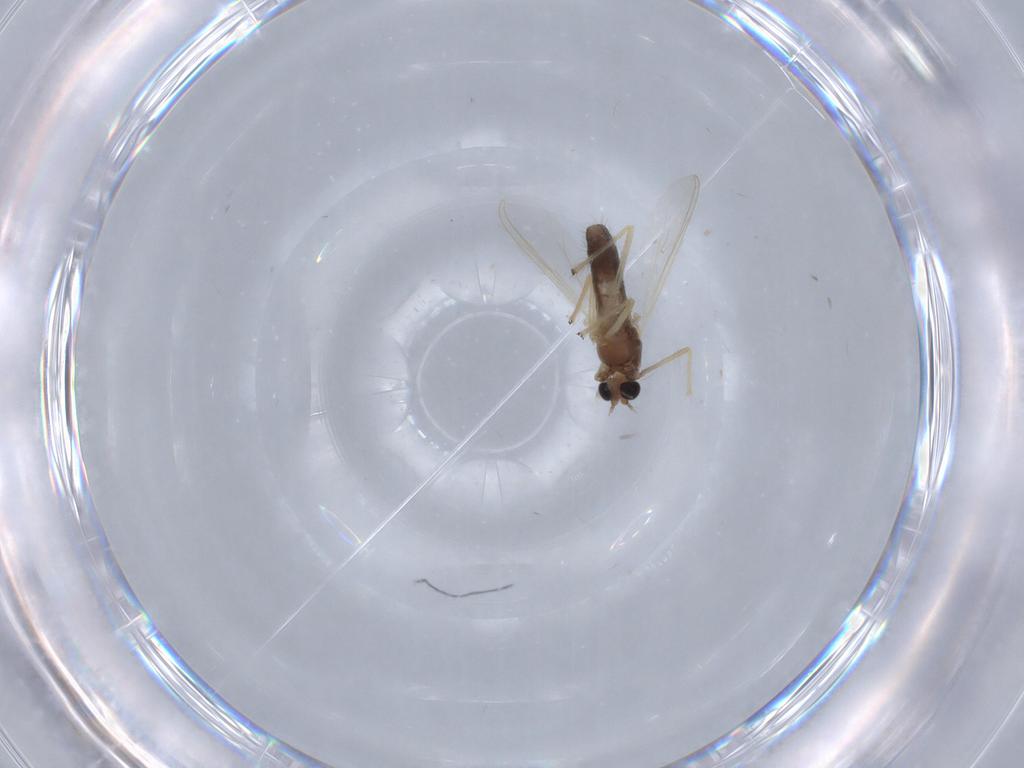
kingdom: Animalia
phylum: Arthropoda
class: Insecta
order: Diptera
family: Chironomidae
